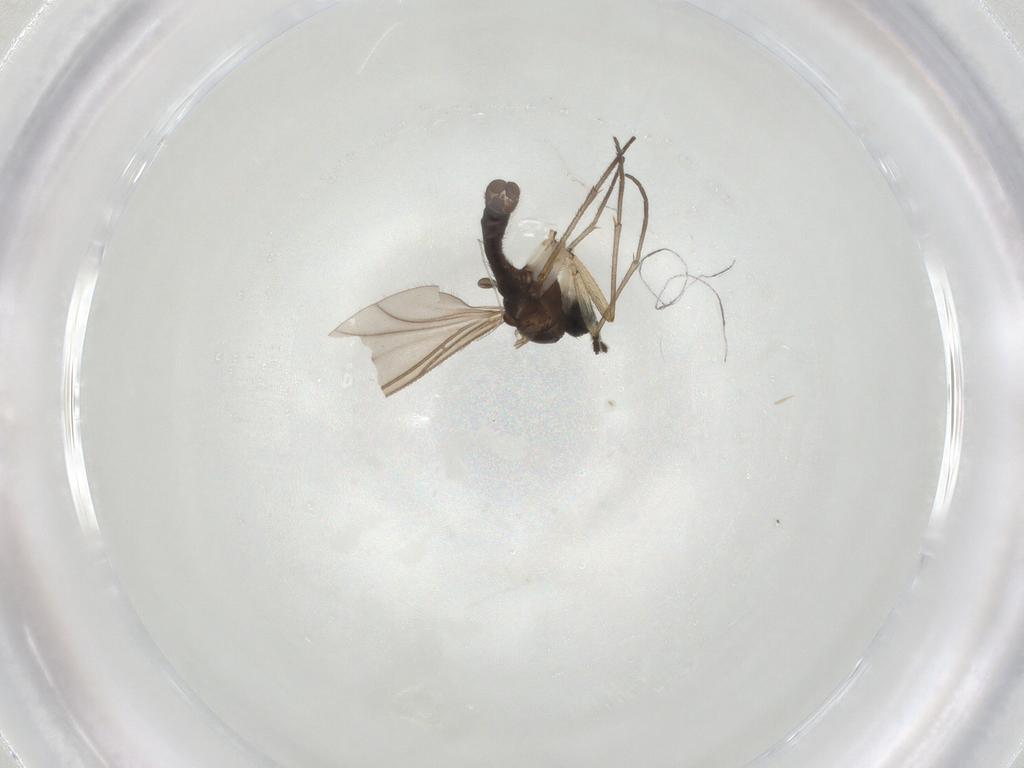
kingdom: Animalia
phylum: Arthropoda
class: Insecta
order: Diptera
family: Sciaridae
